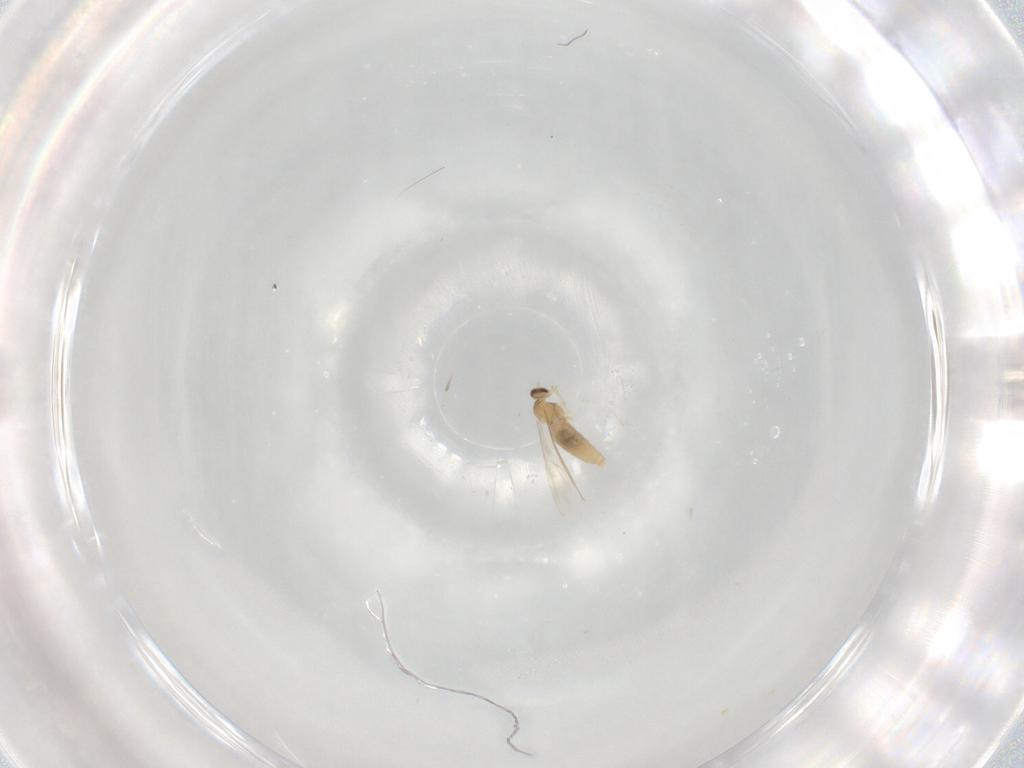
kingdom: Animalia
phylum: Arthropoda
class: Insecta
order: Diptera
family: Cecidomyiidae
